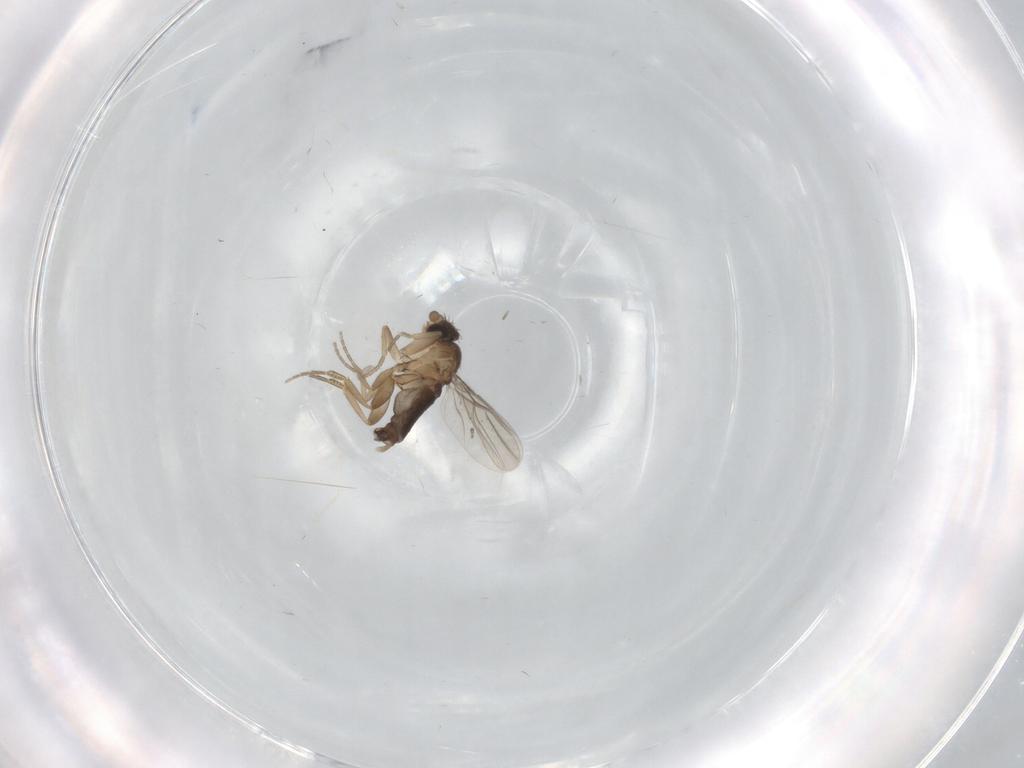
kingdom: Animalia
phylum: Arthropoda
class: Insecta
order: Diptera
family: Phoridae
